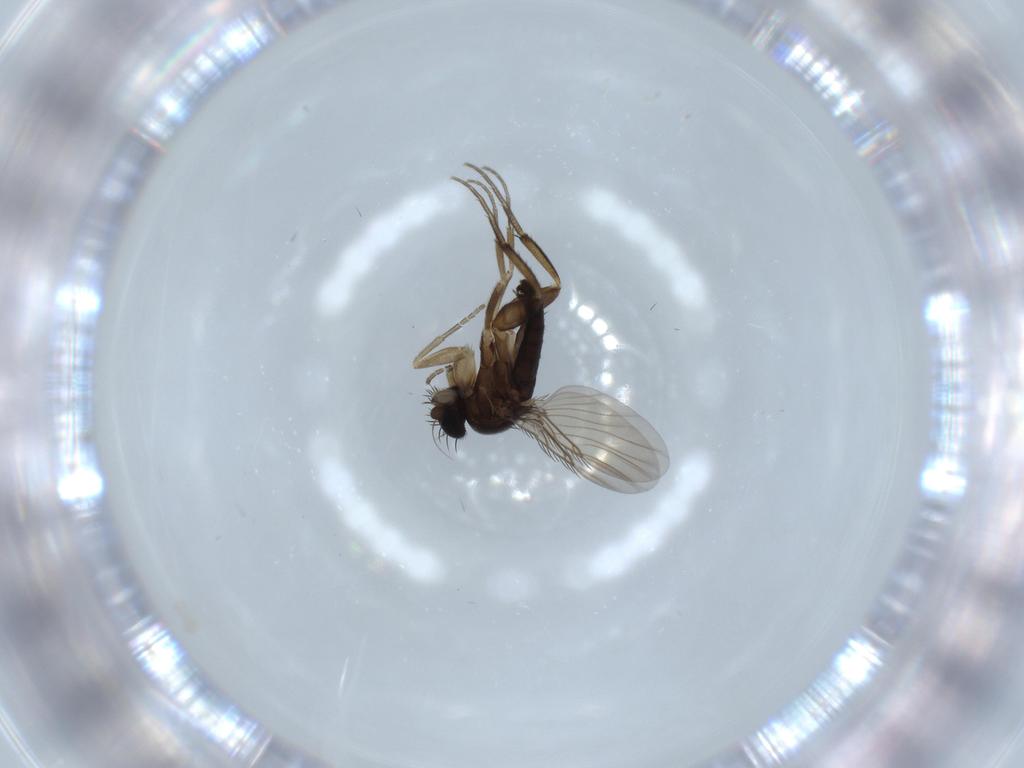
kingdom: Animalia
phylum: Arthropoda
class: Insecta
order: Diptera
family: Phoridae
